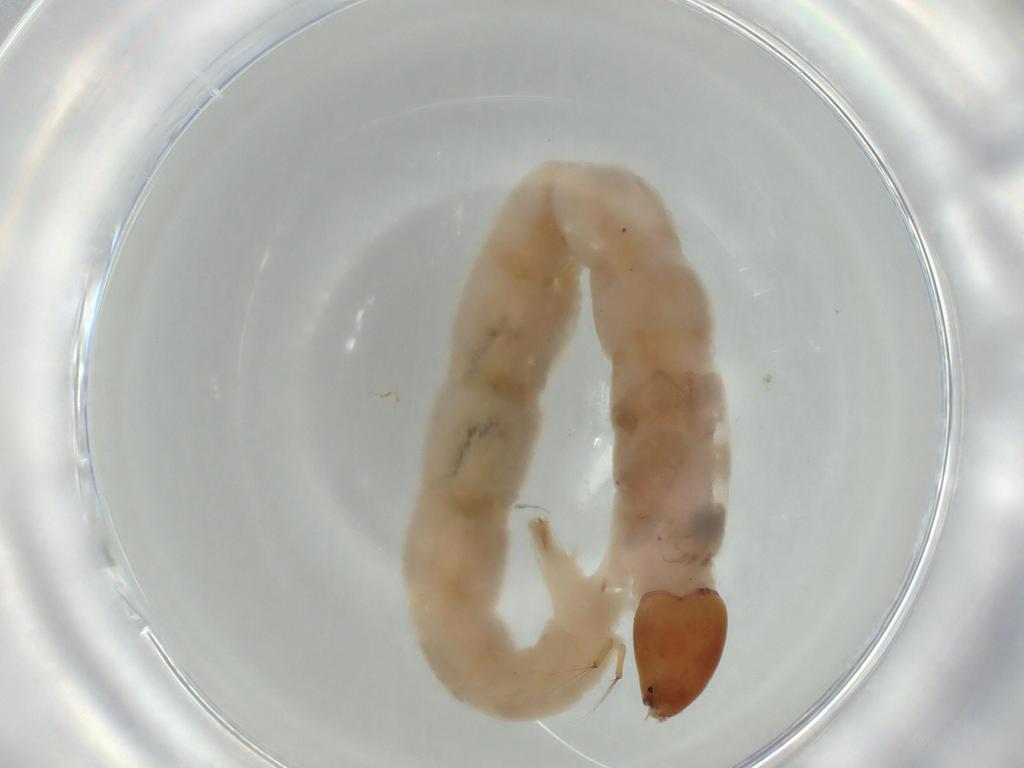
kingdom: Animalia
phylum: Arthropoda
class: Insecta
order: Diptera
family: Chironomidae
